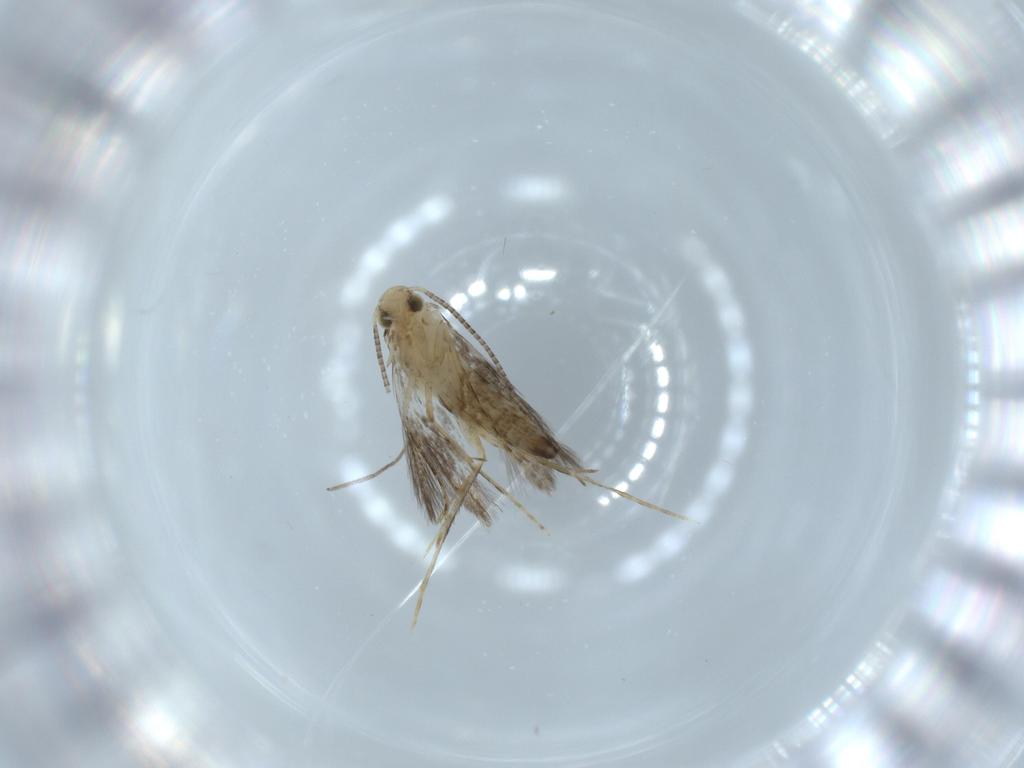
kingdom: Animalia
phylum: Arthropoda
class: Insecta
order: Lepidoptera
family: Gracillariidae
